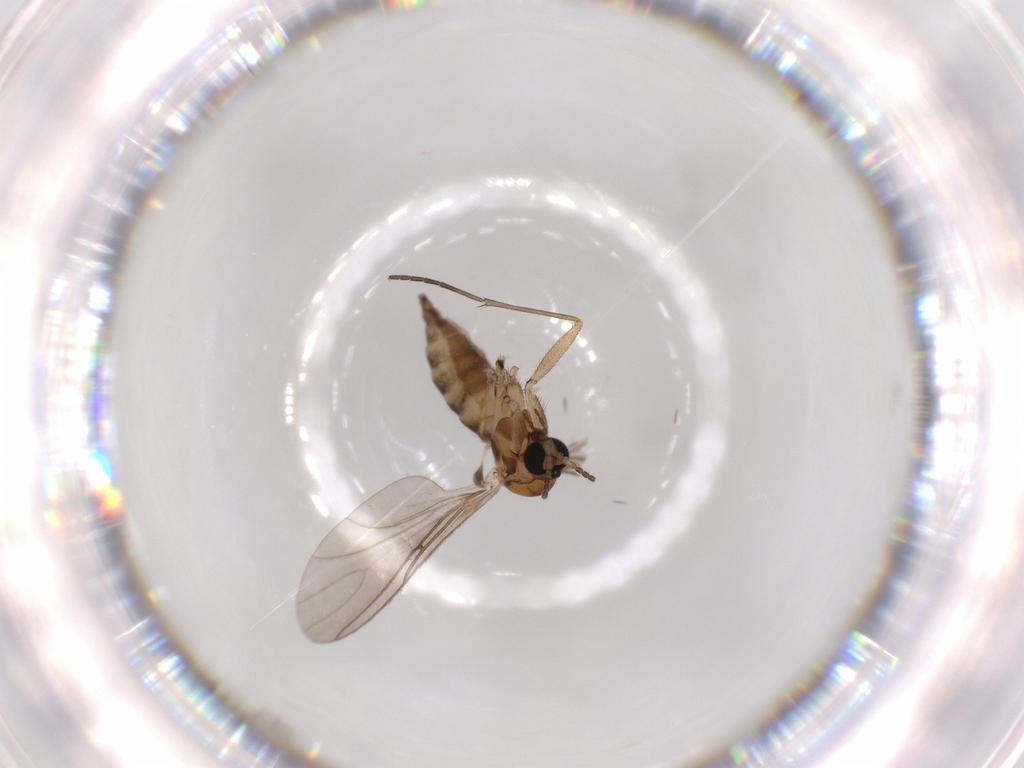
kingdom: Animalia
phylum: Arthropoda
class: Insecta
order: Diptera
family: Sciaridae
